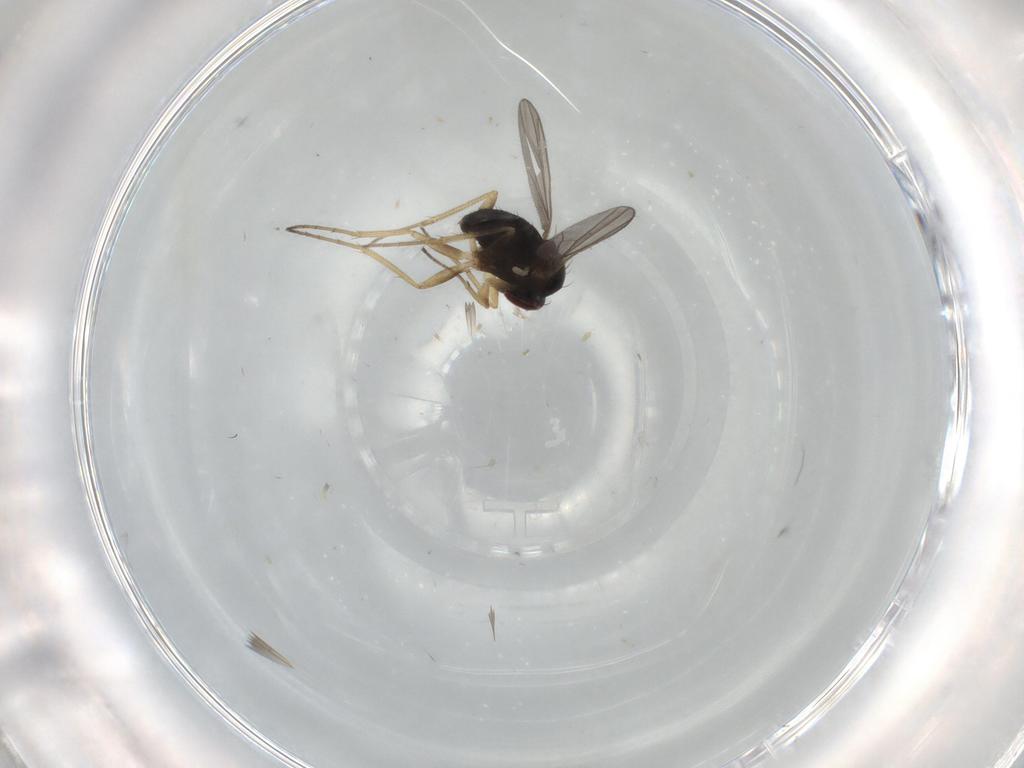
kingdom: Animalia
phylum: Arthropoda
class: Insecta
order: Diptera
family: Dolichopodidae
